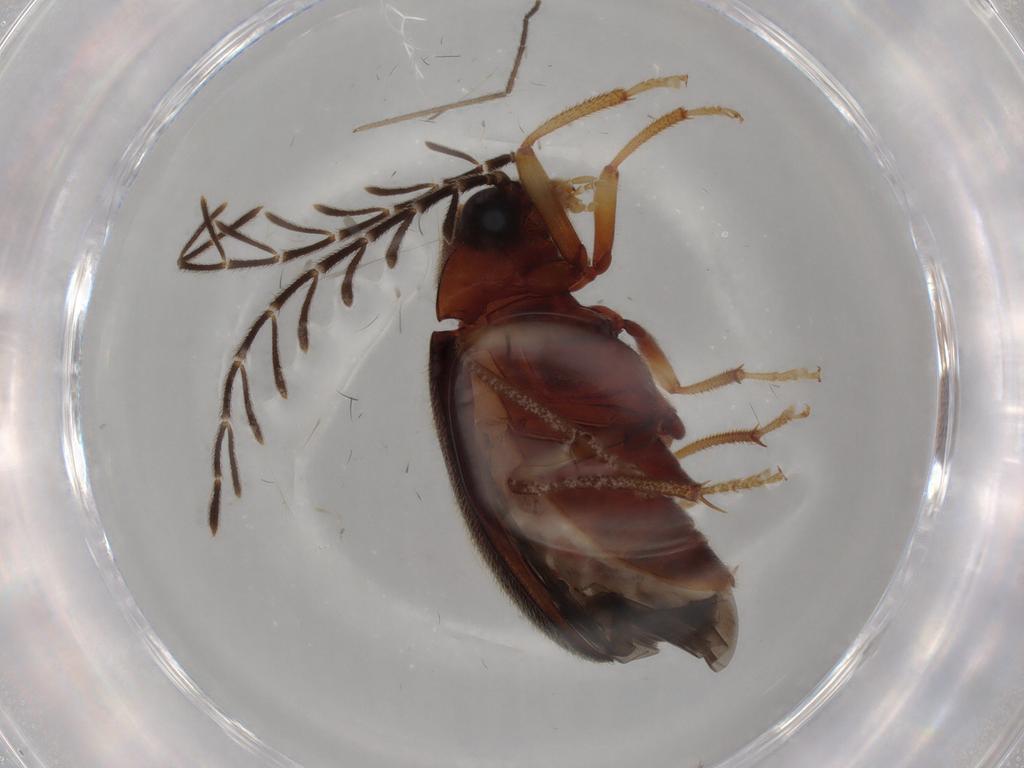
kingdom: Animalia
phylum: Arthropoda
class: Insecta
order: Coleoptera
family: Ptilodactylidae
